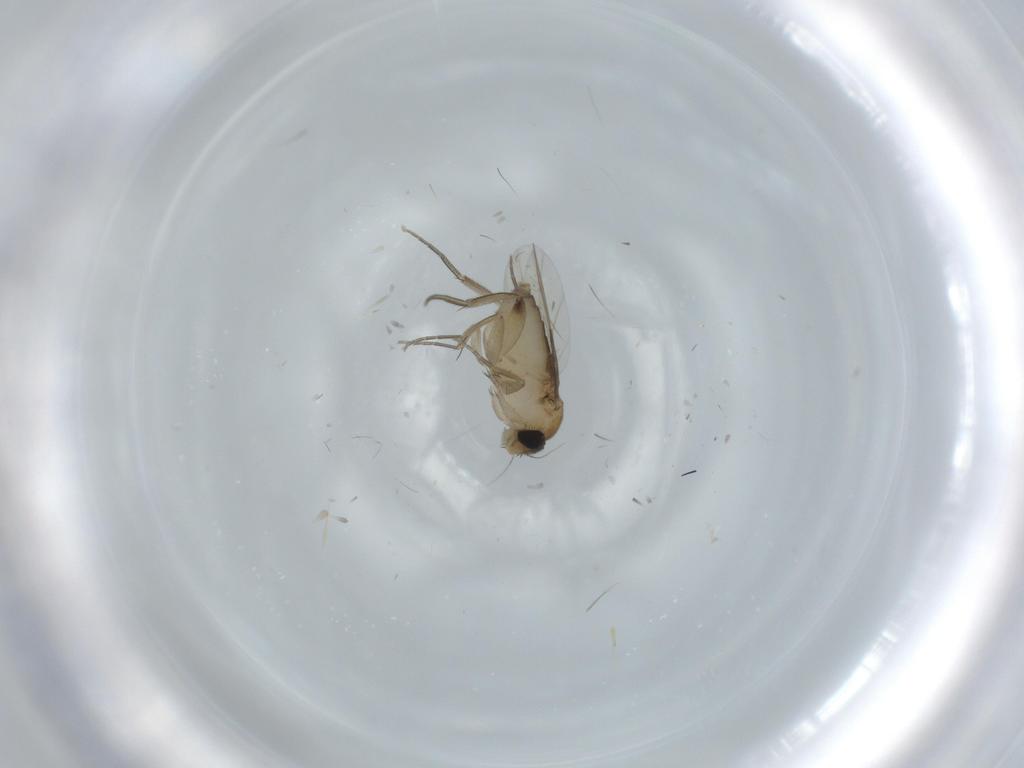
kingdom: Animalia
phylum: Arthropoda
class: Insecta
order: Diptera
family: Phoridae
